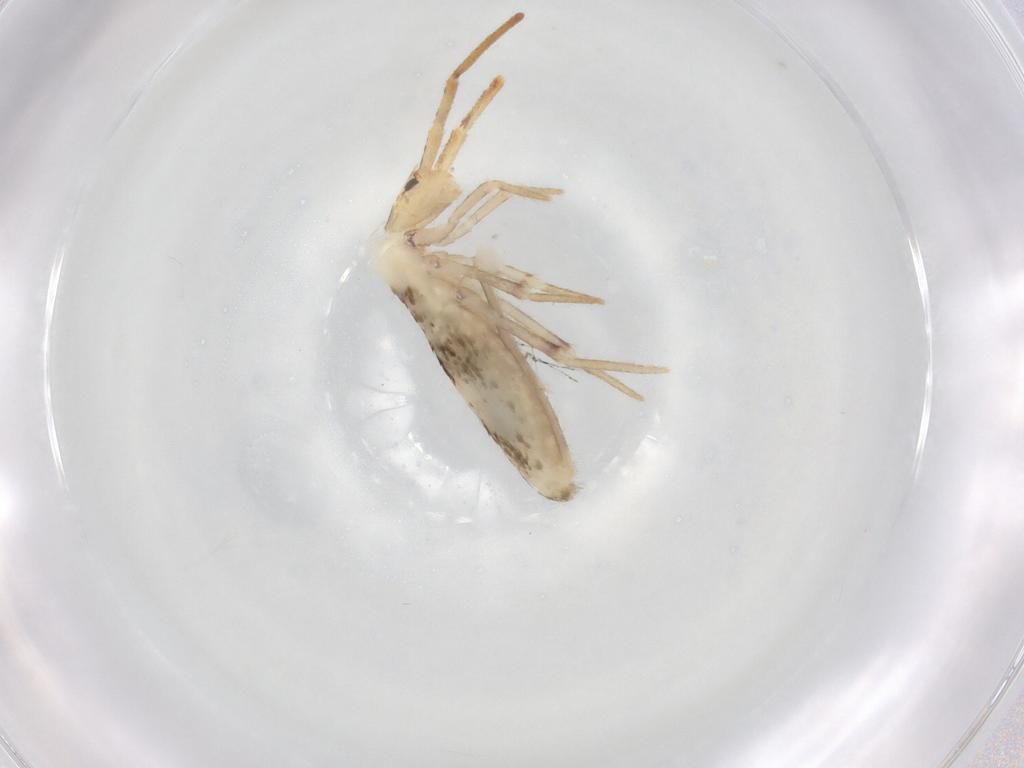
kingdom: Animalia
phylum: Arthropoda
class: Collembola
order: Poduromorpha
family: Hypogastruridae
